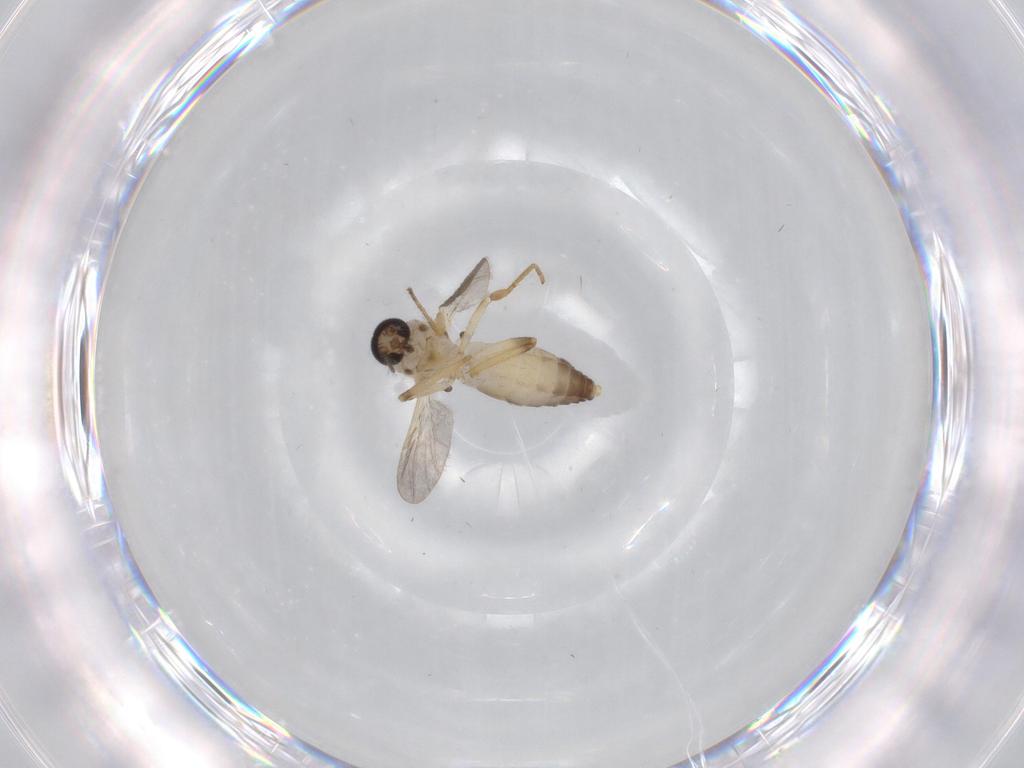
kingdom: Animalia
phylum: Arthropoda
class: Insecta
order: Diptera
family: Ceratopogonidae
